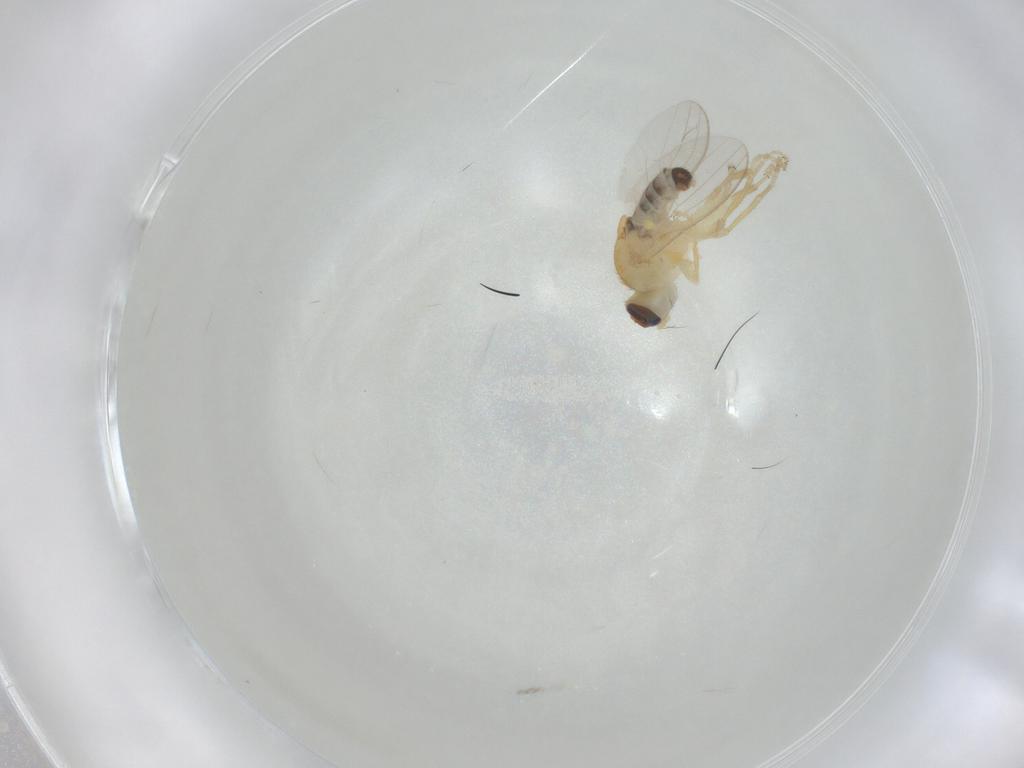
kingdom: Animalia
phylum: Arthropoda
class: Insecta
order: Diptera
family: Chyromyidae
